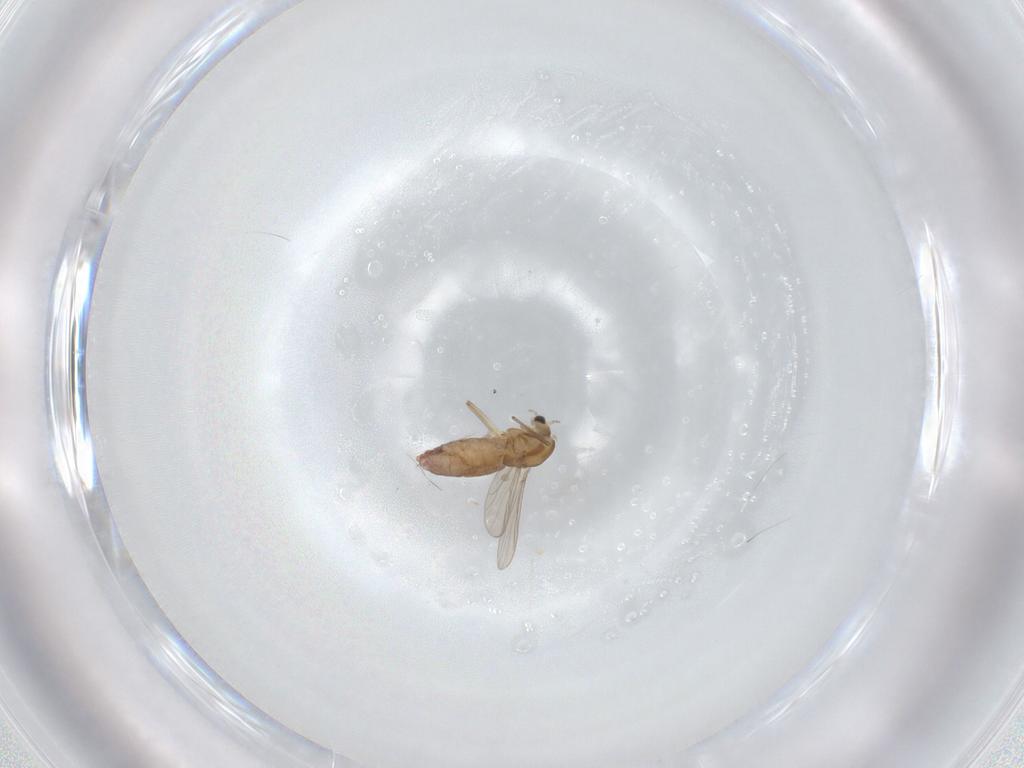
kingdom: Animalia
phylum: Arthropoda
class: Insecta
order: Diptera
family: Chironomidae
